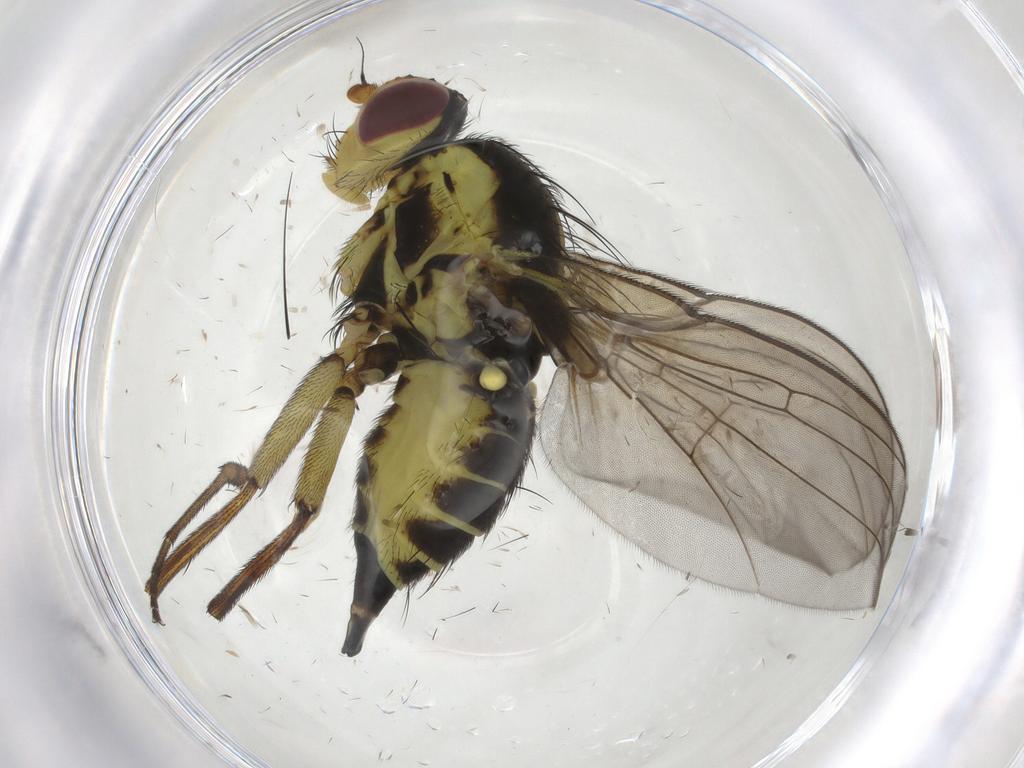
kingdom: Animalia
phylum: Arthropoda
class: Insecta
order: Diptera
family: Agromyzidae
